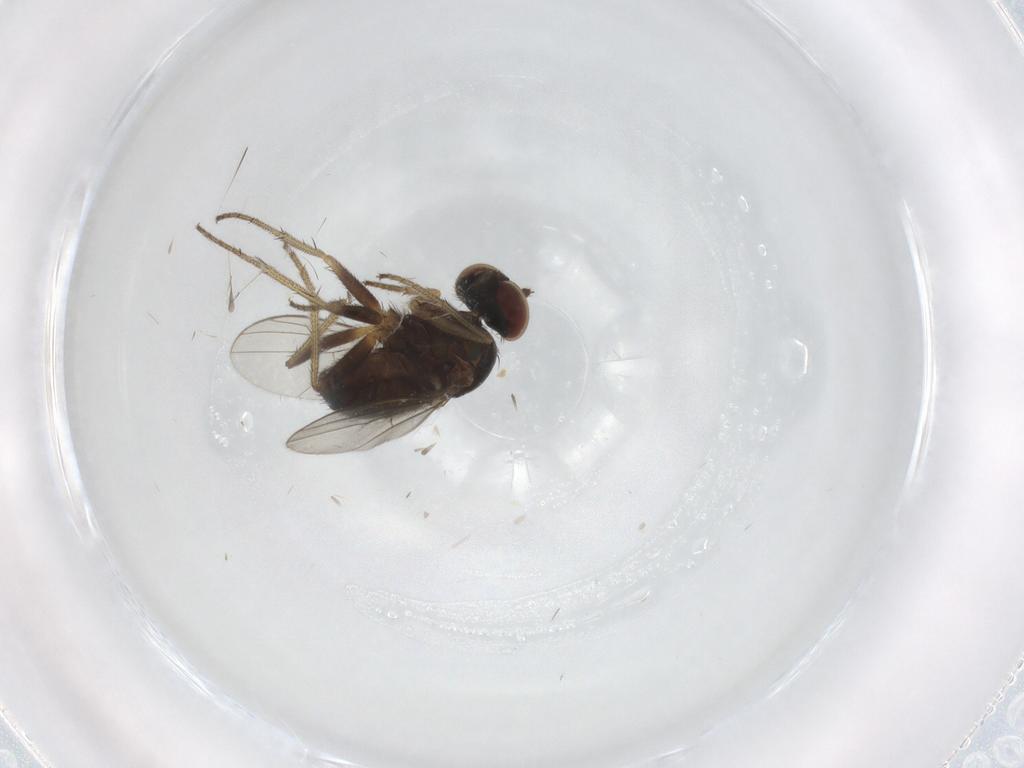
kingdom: Animalia
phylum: Arthropoda
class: Insecta
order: Diptera
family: Dolichopodidae
